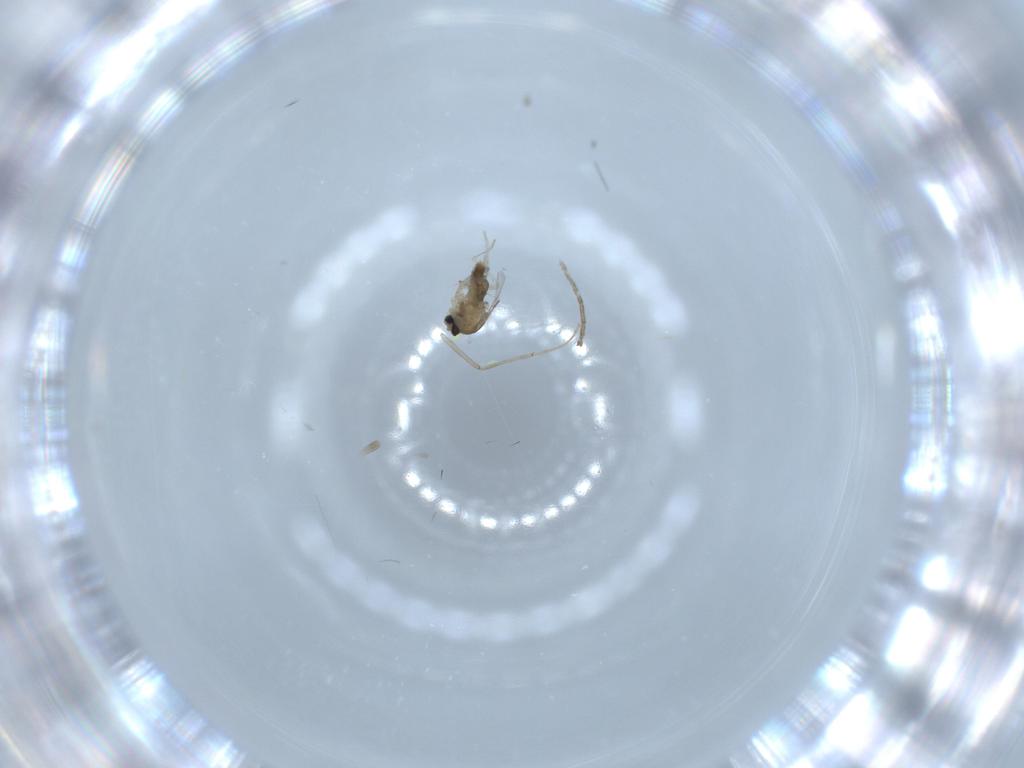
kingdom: Animalia
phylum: Arthropoda
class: Insecta
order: Diptera
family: Chironomidae
